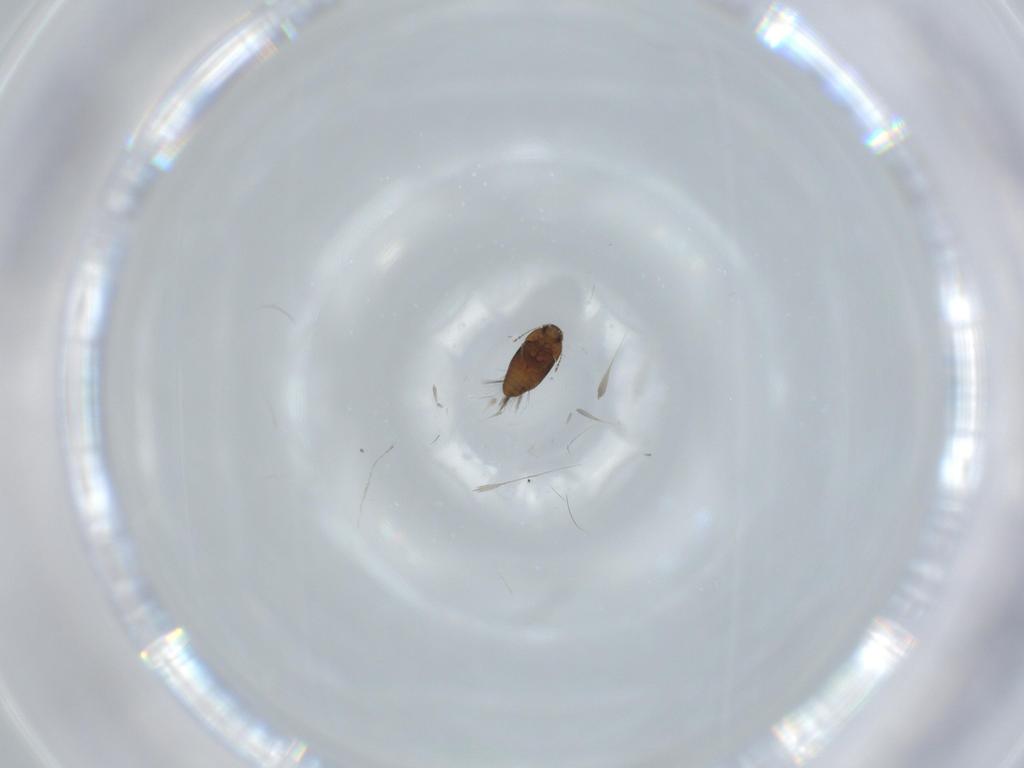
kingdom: Animalia
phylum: Arthropoda
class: Insecta
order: Coleoptera
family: Ptiliidae
